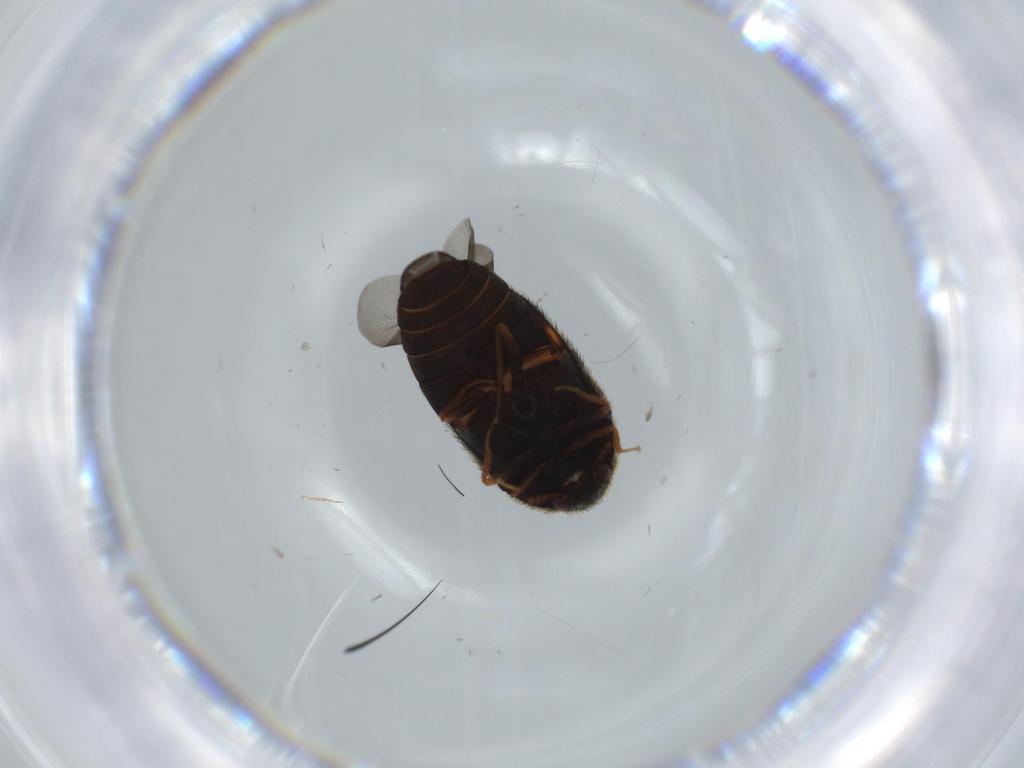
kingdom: Animalia
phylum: Arthropoda
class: Insecta
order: Coleoptera
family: Dermestidae
